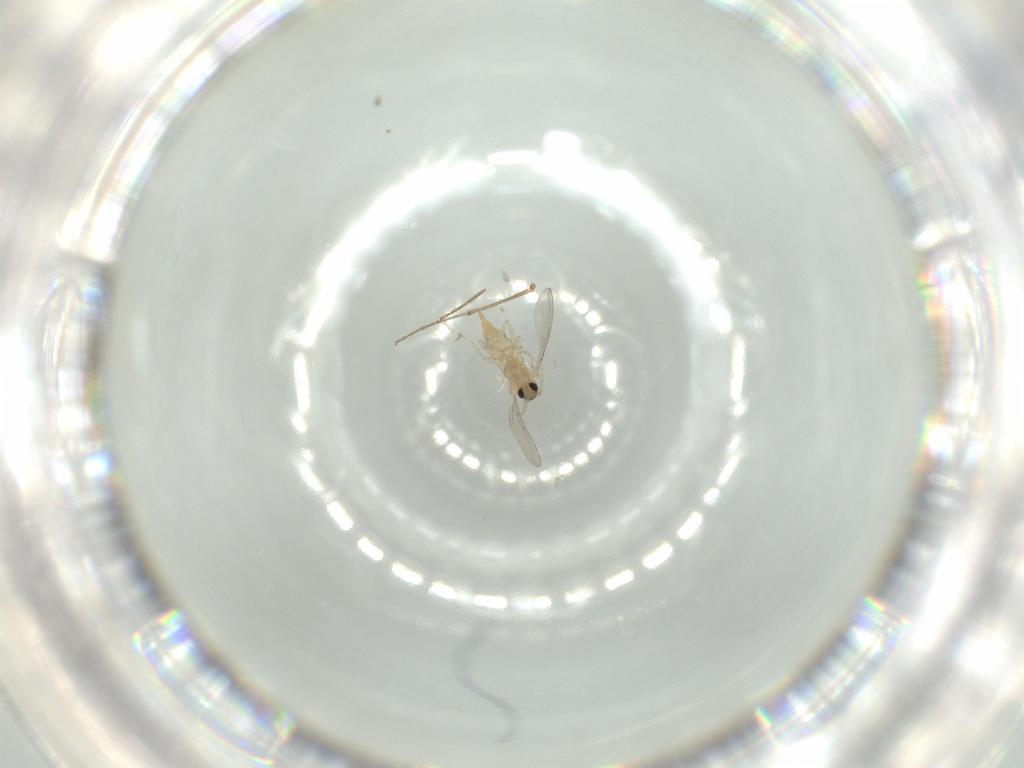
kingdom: Animalia
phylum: Arthropoda
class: Insecta
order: Diptera
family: Cecidomyiidae
